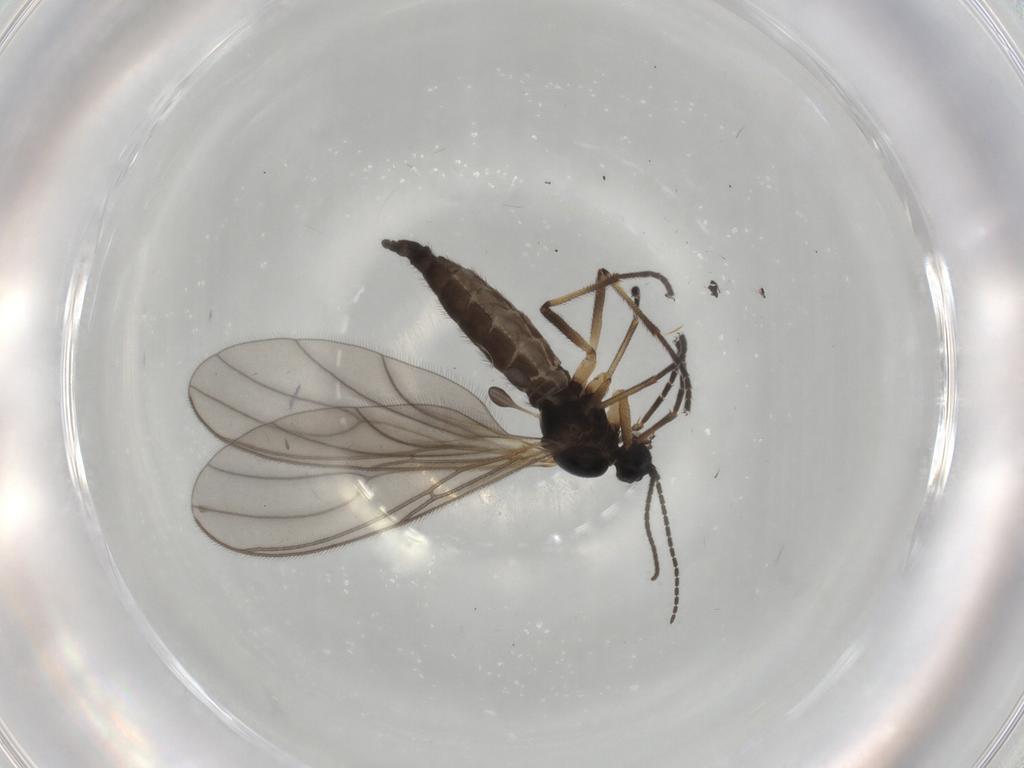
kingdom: Animalia
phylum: Arthropoda
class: Insecta
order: Diptera
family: Sciaridae
